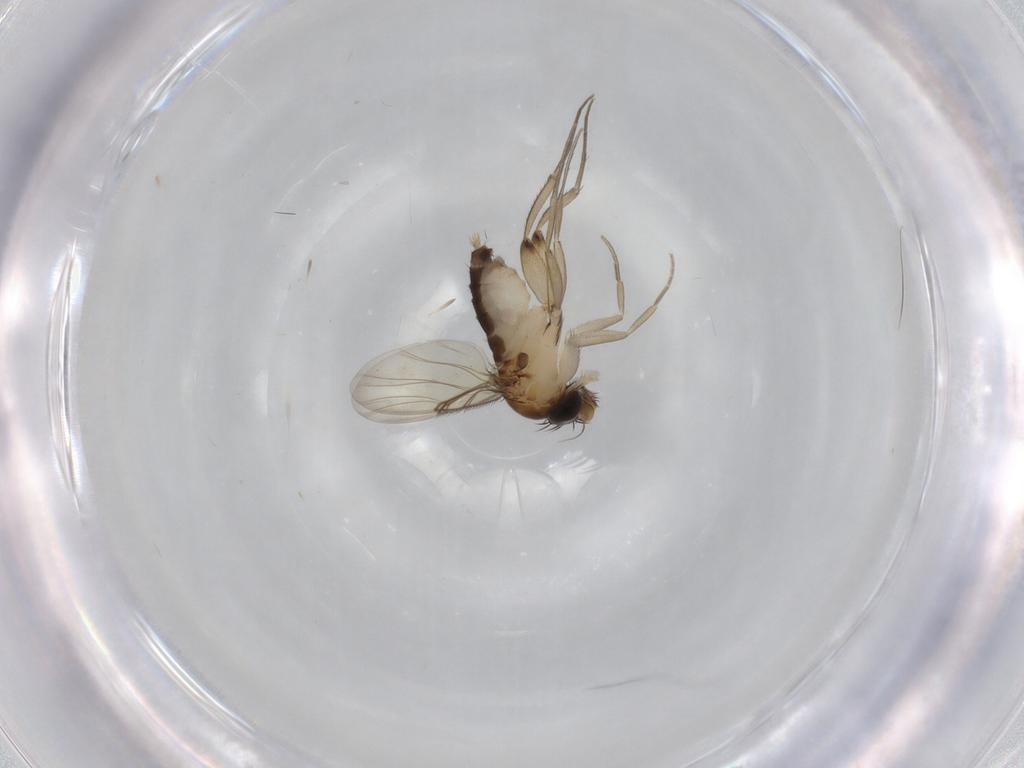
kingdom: Animalia
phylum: Arthropoda
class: Insecta
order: Diptera
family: Phoridae
